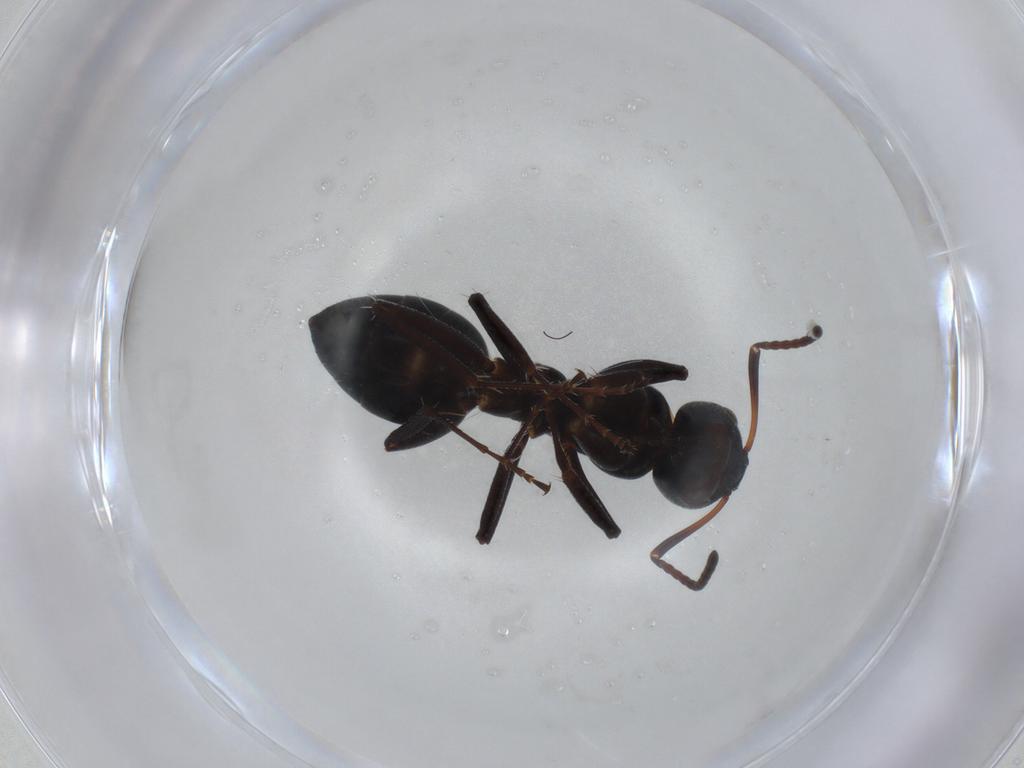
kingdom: Animalia
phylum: Arthropoda
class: Insecta
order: Hymenoptera
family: Formicidae
